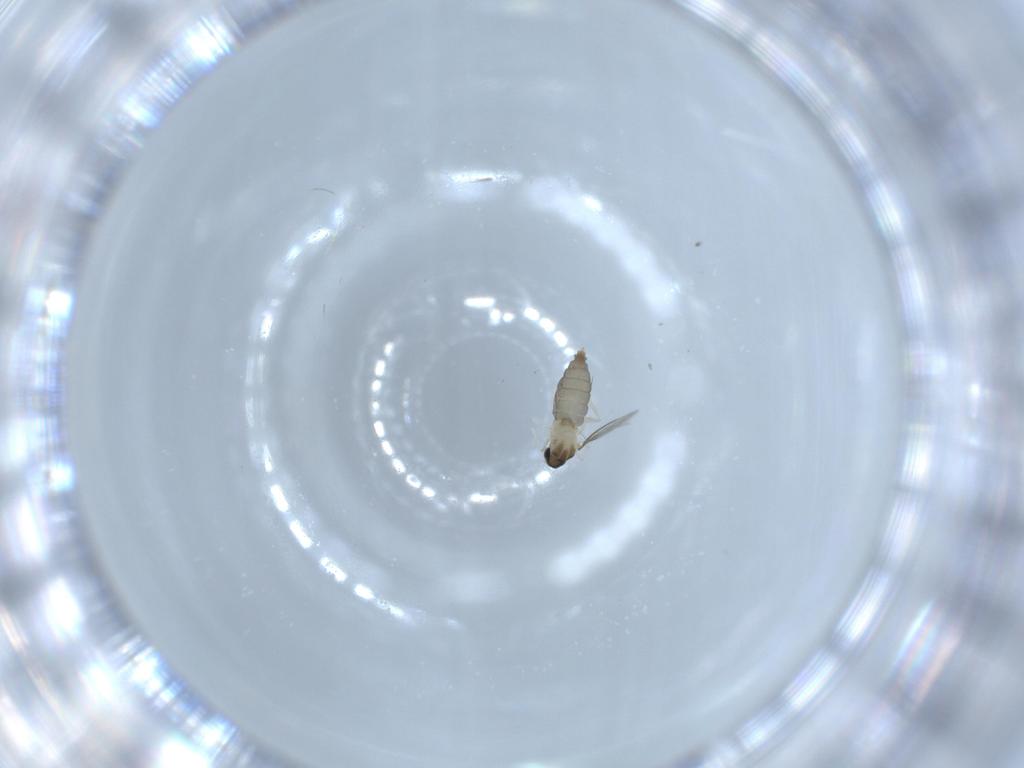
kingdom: Animalia
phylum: Arthropoda
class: Insecta
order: Diptera
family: Cecidomyiidae
